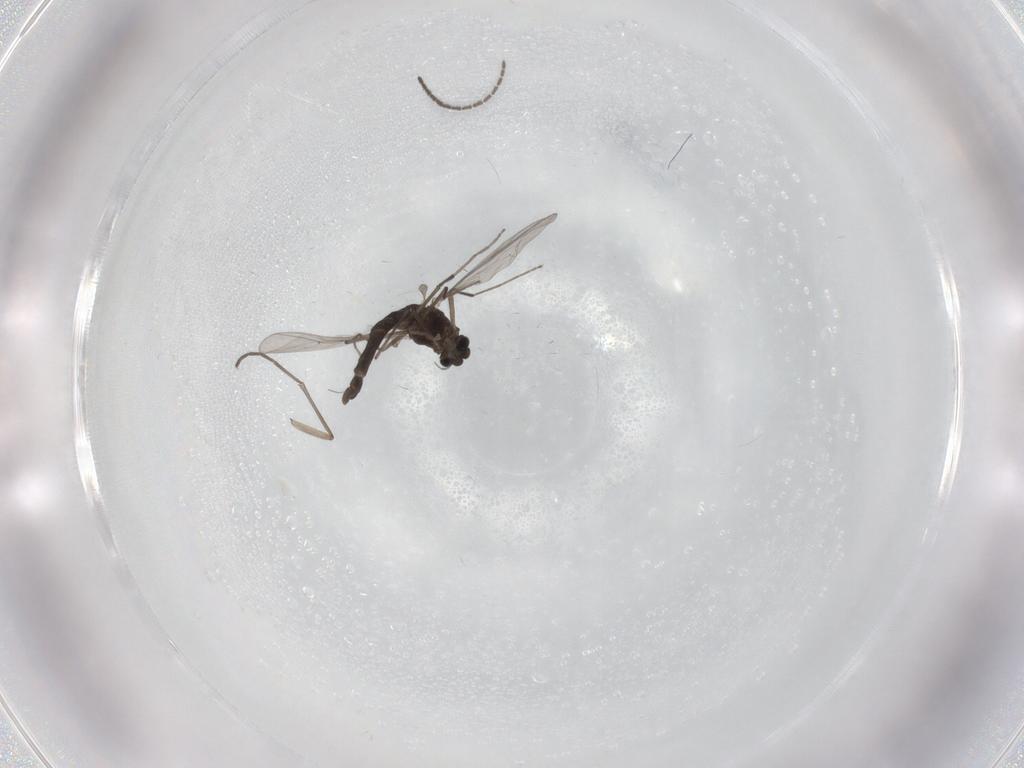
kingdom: Animalia
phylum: Arthropoda
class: Insecta
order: Diptera
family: Chironomidae
